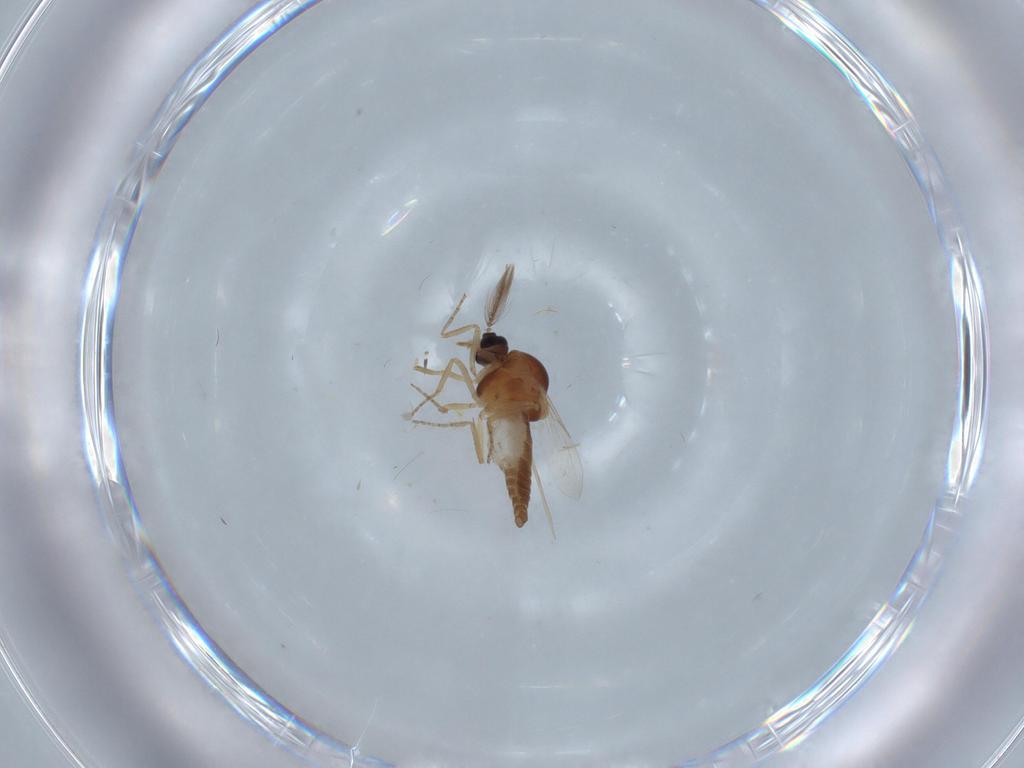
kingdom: Animalia
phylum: Arthropoda
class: Insecta
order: Diptera
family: Ceratopogonidae
